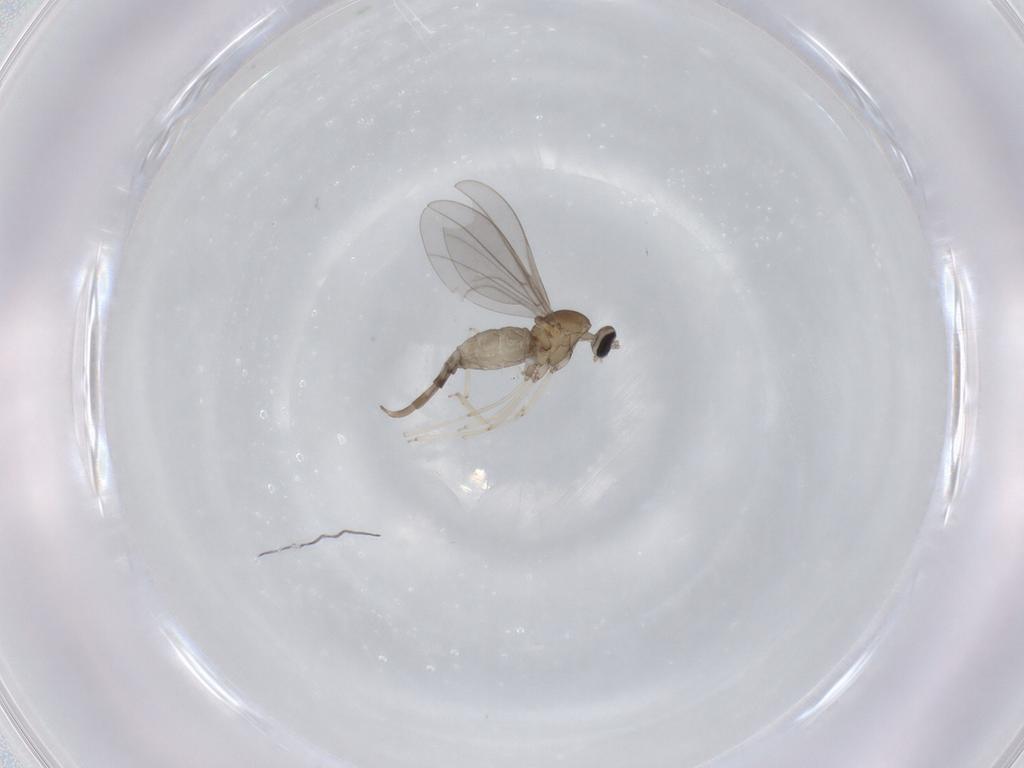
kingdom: Animalia
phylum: Arthropoda
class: Insecta
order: Diptera
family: Cecidomyiidae
